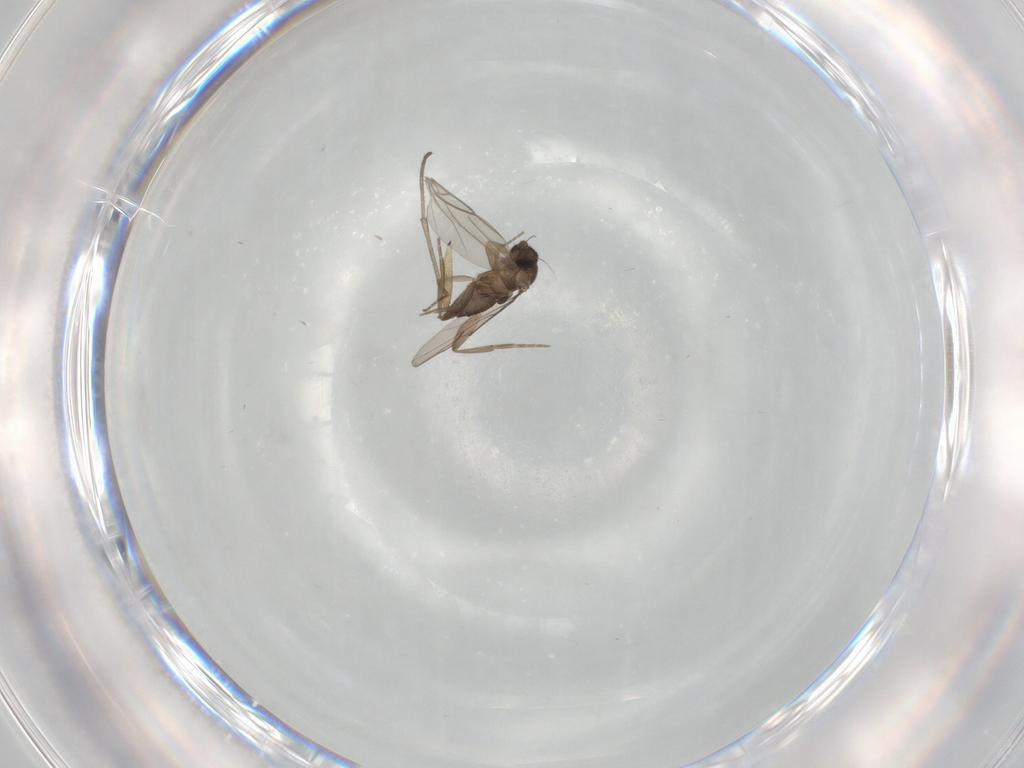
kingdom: Animalia
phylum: Arthropoda
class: Insecta
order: Diptera
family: Phoridae
